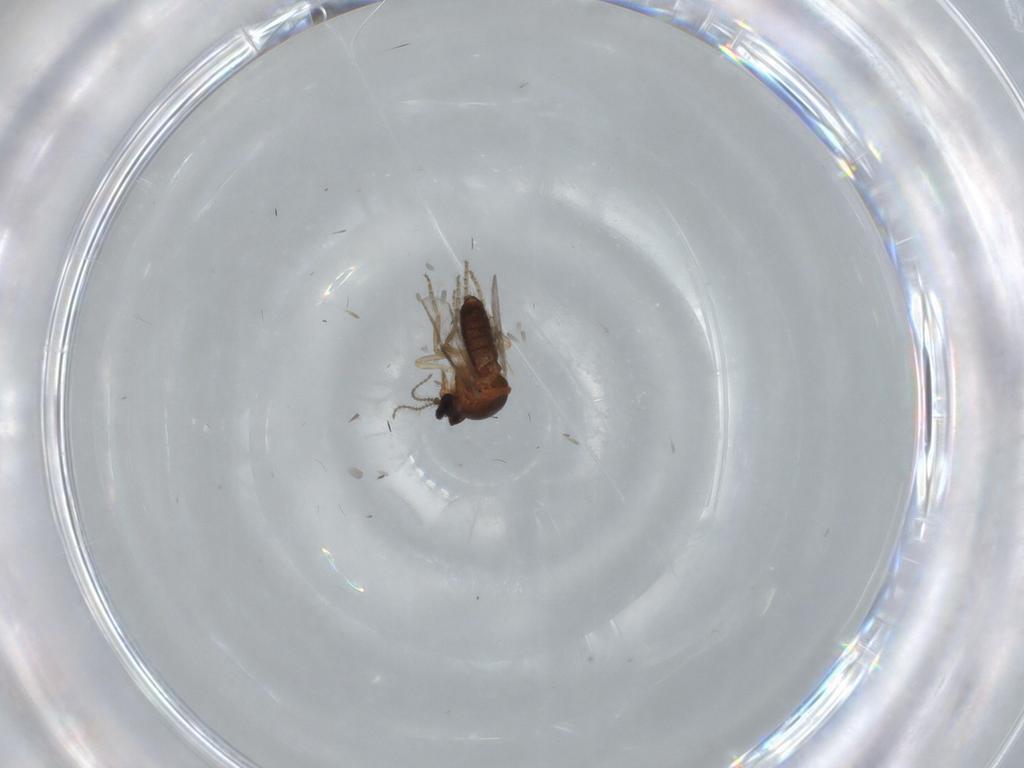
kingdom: Animalia
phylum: Arthropoda
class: Insecta
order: Diptera
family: Ceratopogonidae
